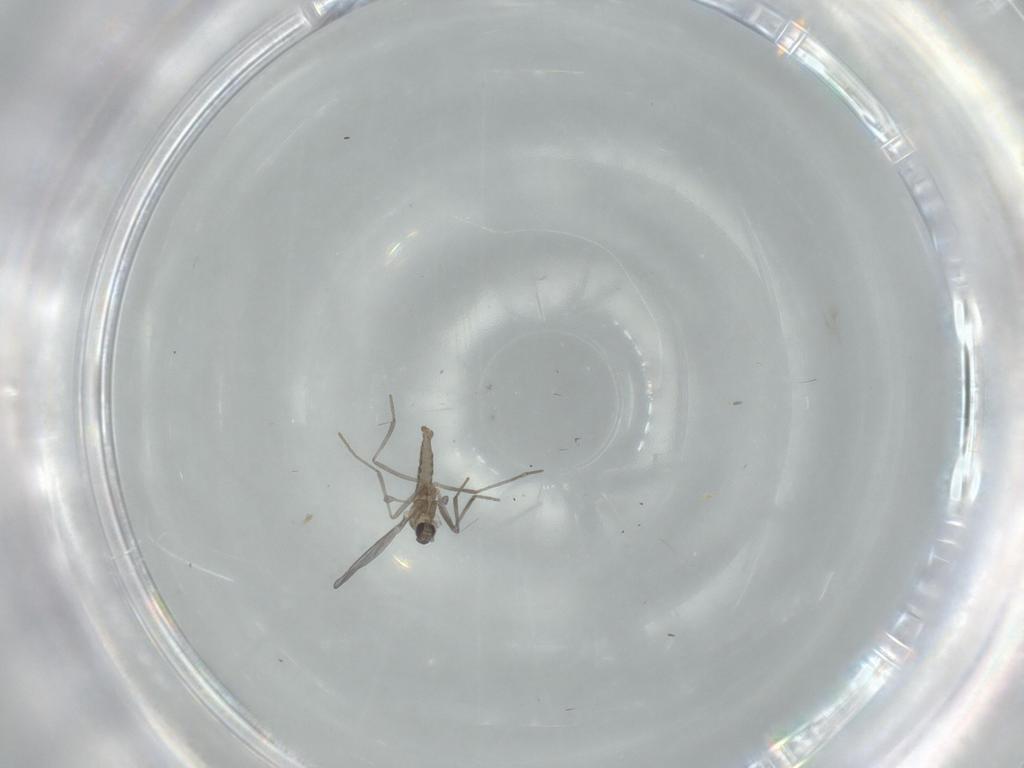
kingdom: Animalia
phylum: Arthropoda
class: Insecta
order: Diptera
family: Cecidomyiidae
